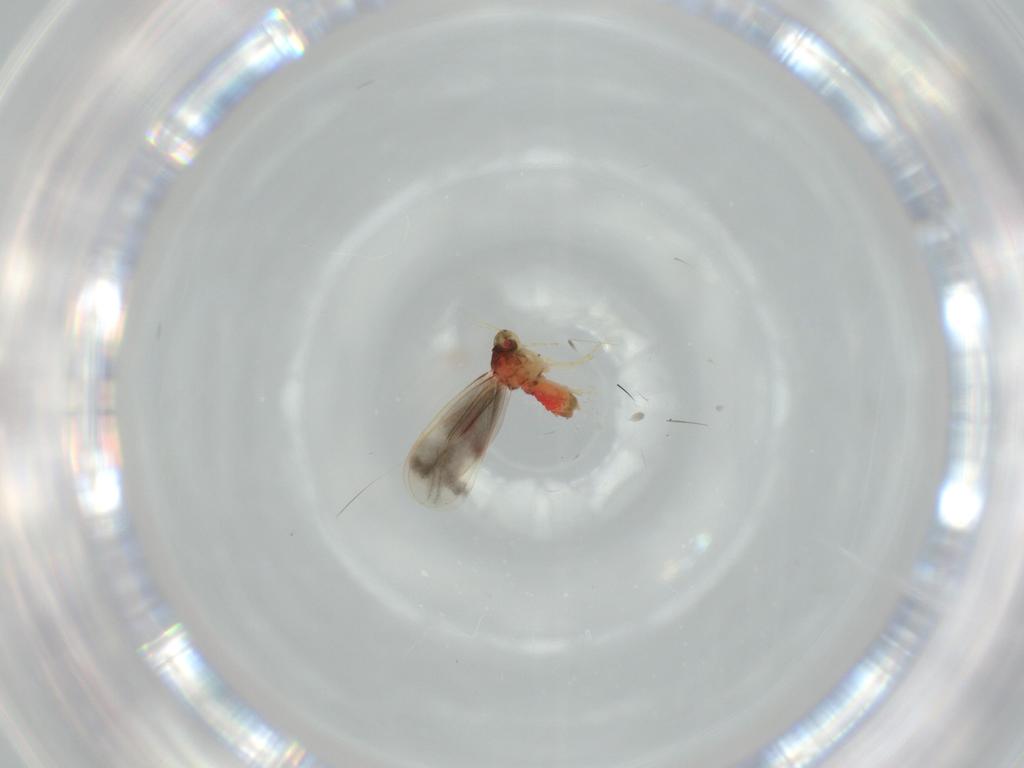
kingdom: Animalia
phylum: Arthropoda
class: Insecta
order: Hemiptera
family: Aleyrodidae
